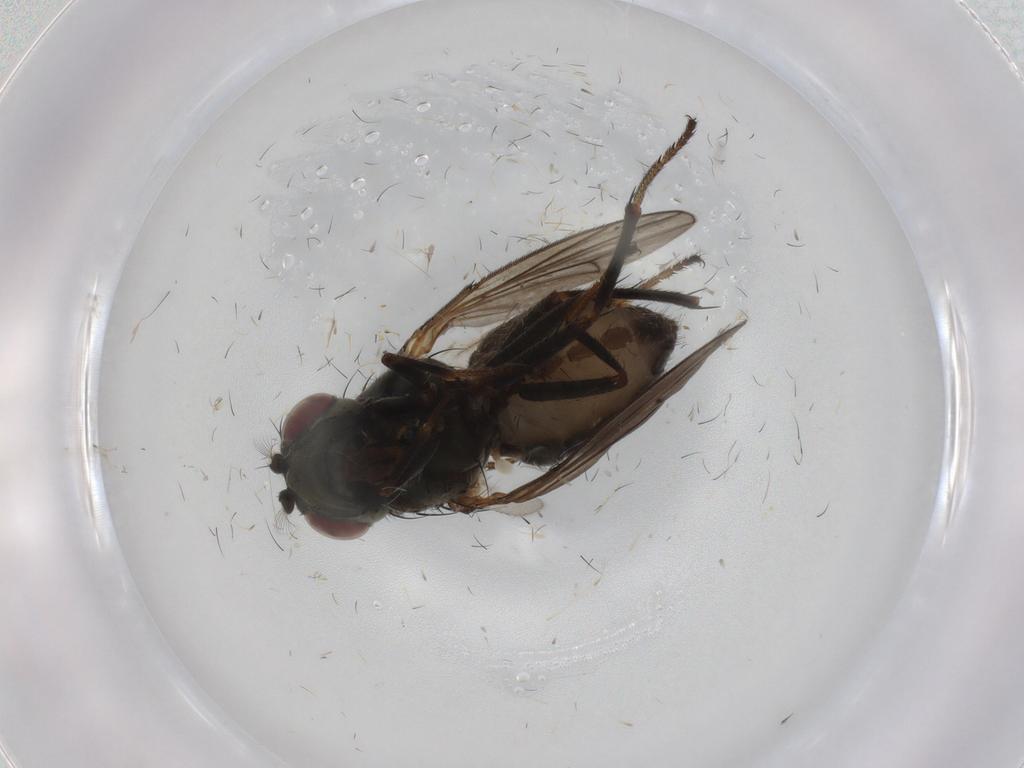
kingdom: Animalia
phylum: Arthropoda
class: Insecta
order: Diptera
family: Ephydridae
